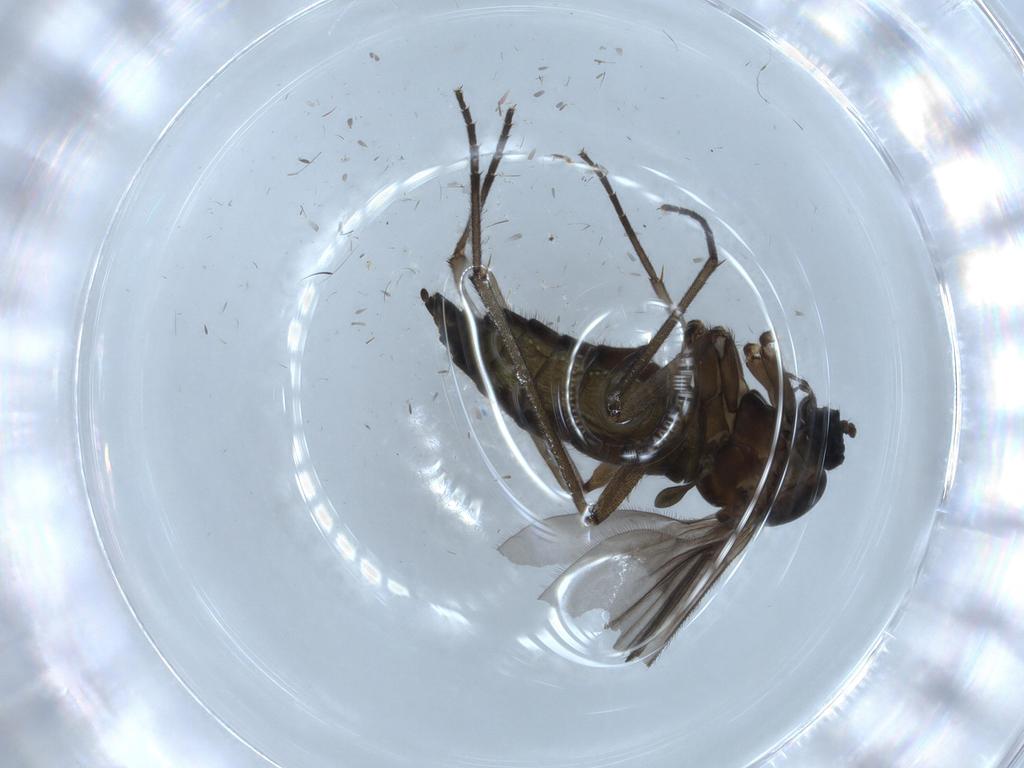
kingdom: Animalia
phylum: Arthropoda
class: Insecta
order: Diptera
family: Sciaridae
